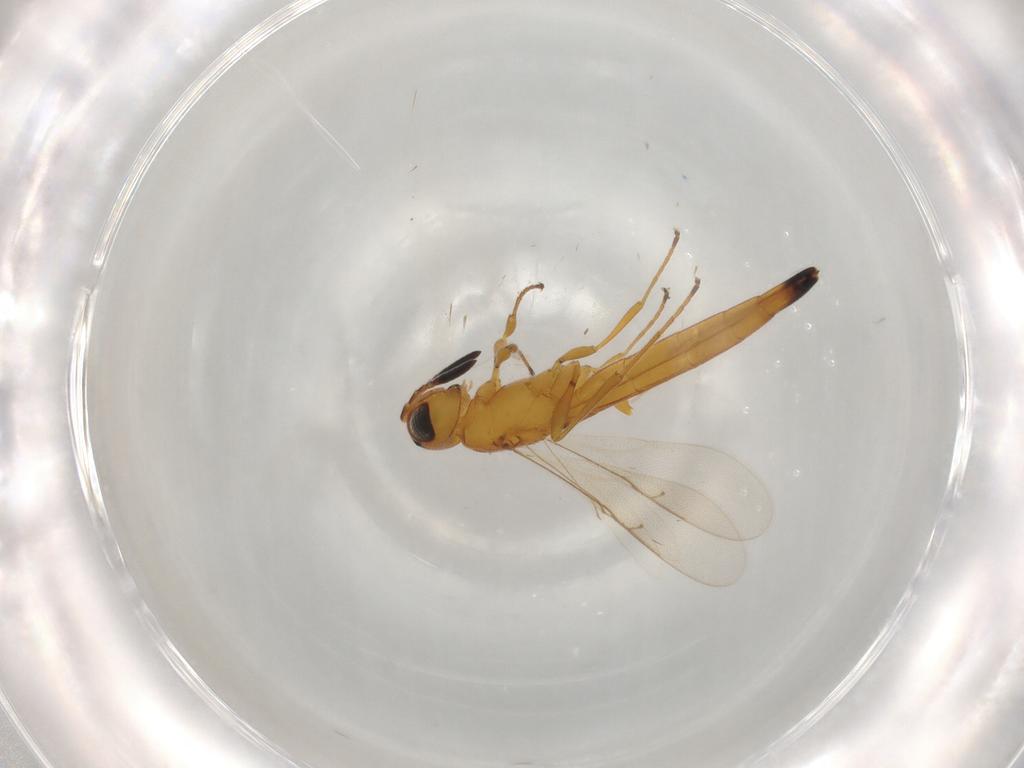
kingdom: Animalia
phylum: Arthropoda
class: Insecta
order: Hymenoptera
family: Scelionidae
